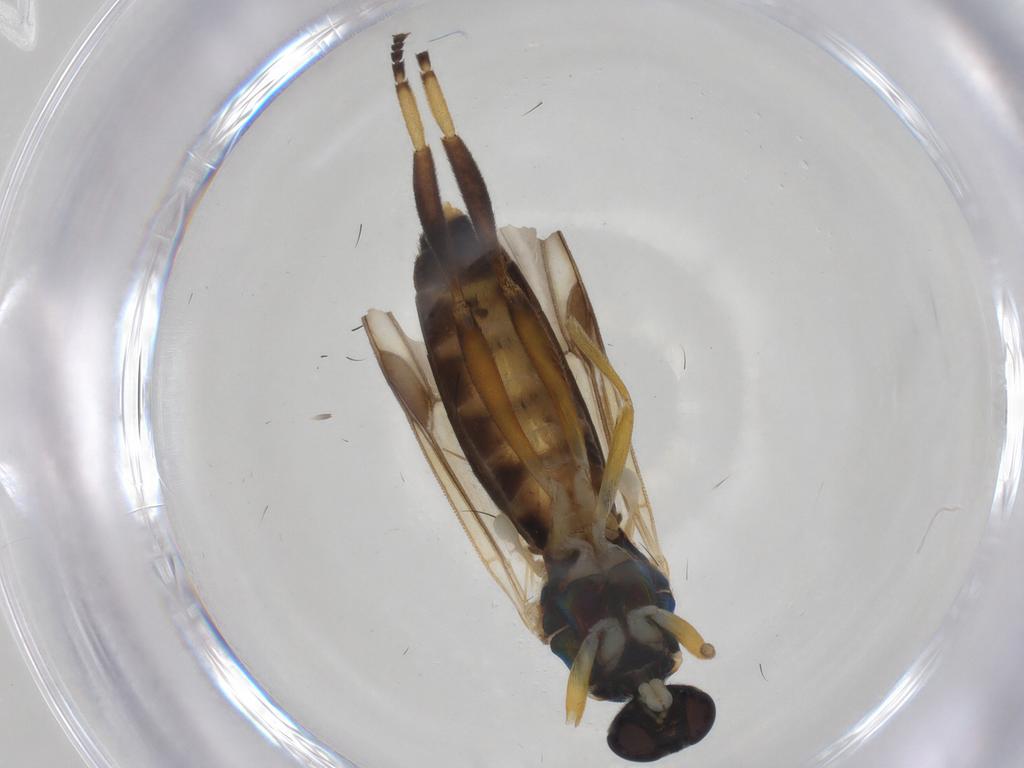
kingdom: Animalia
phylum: Arthropoda
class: Insecta
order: Diptera
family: Stratiomyidae
